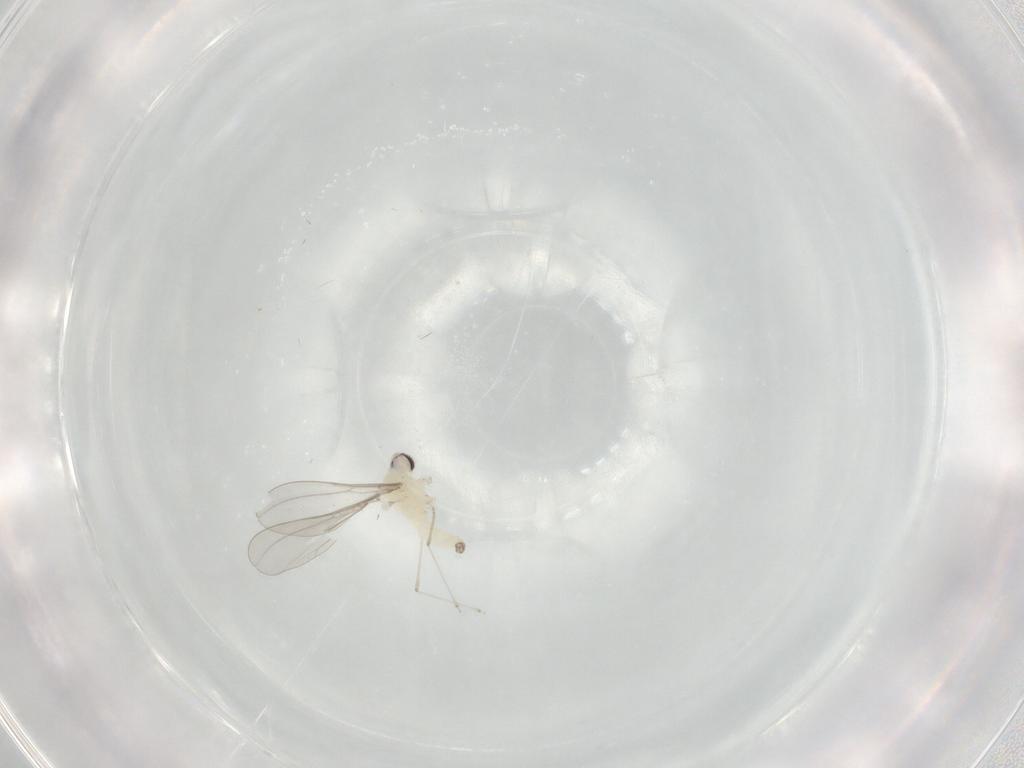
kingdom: Animalia
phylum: Arthropoda
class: Insecta
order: Diptera
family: Cecidomyiidae
